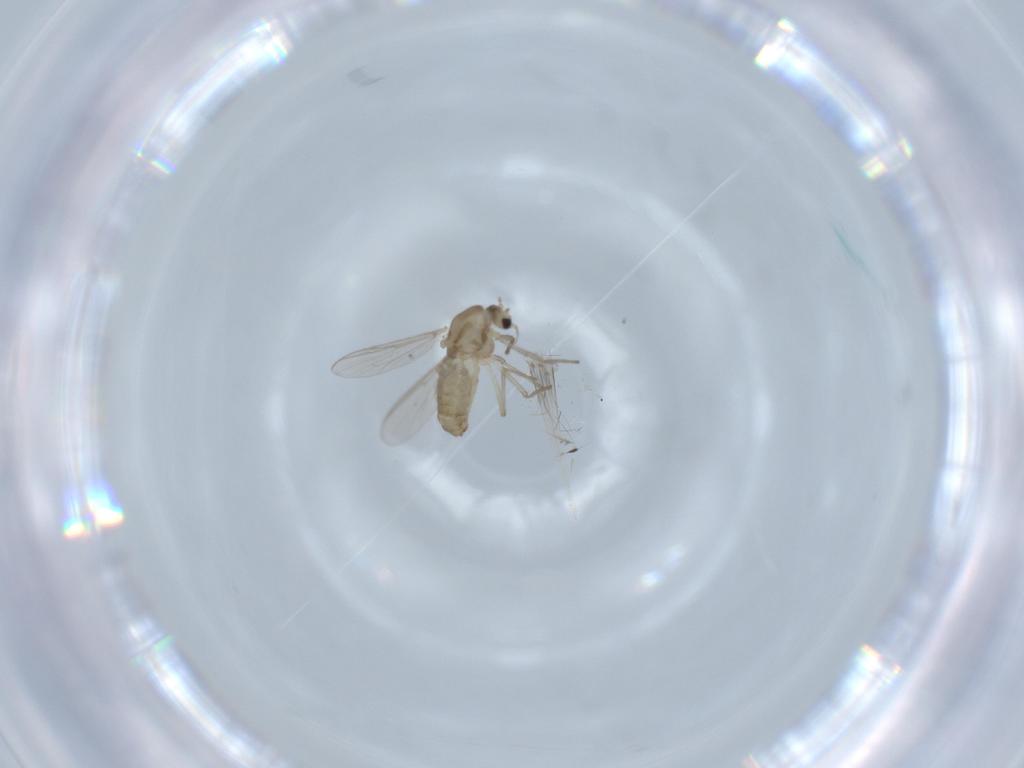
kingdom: Animalia
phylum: Arthropoda
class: Insecta
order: Diptera
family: Chironomidae
